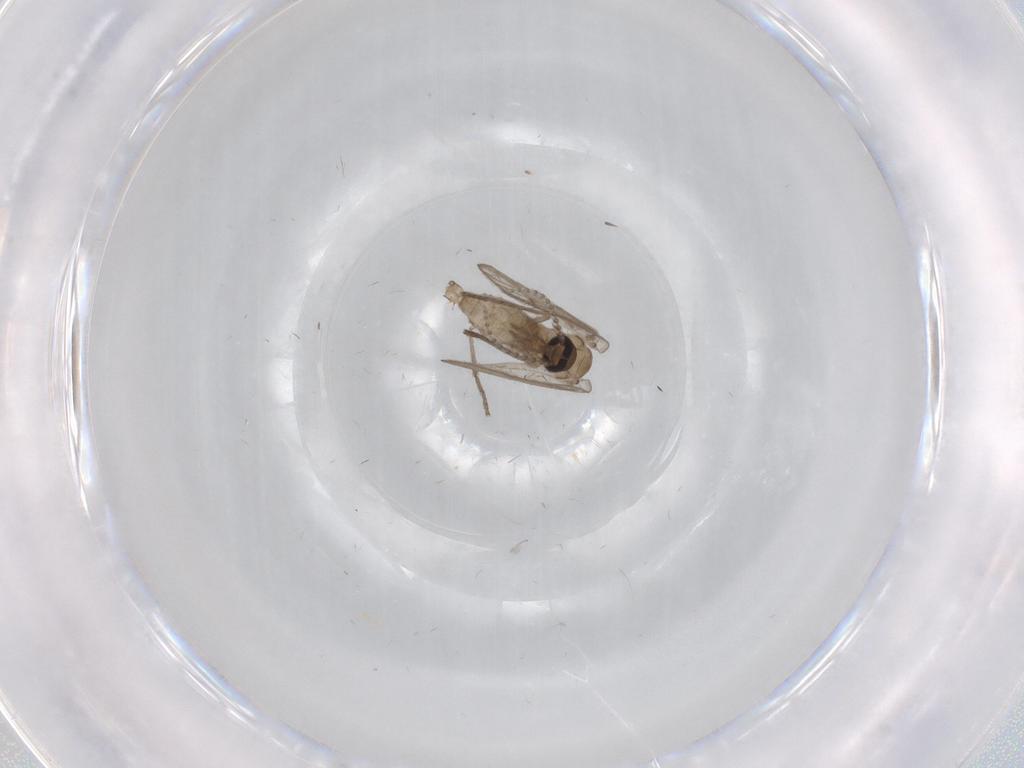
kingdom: Animalia
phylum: Arthropoda
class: Insecta
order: Diptera
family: Psychodidae
